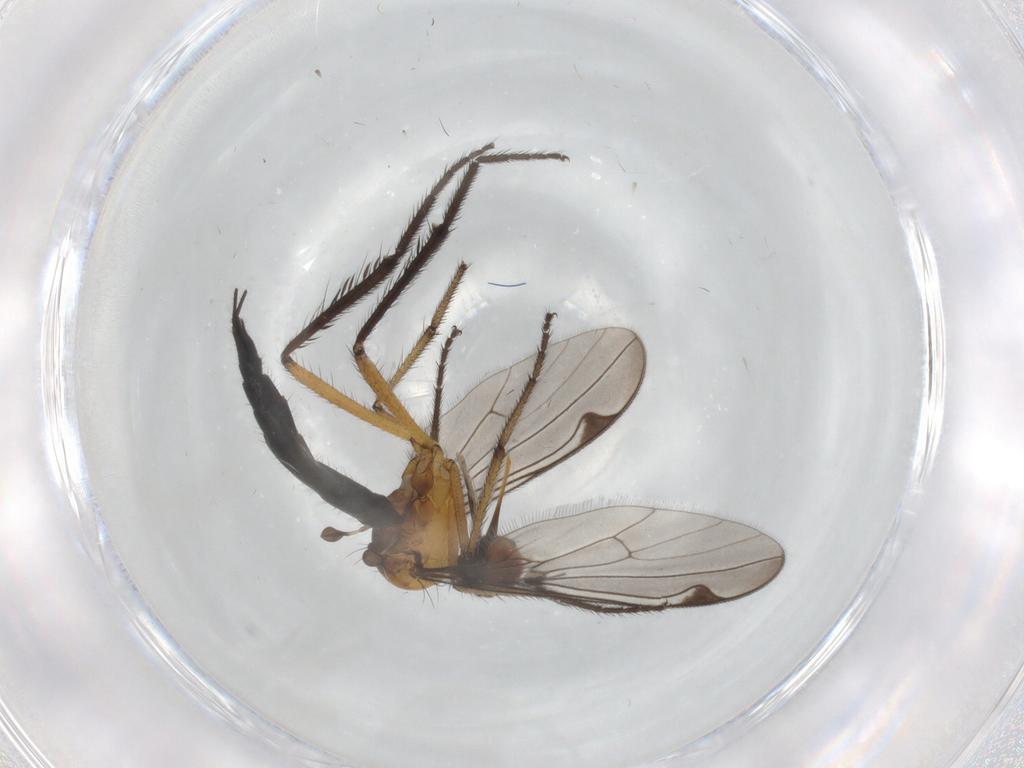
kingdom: Animalia
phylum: Arthropoda
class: Insecta
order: Diptera
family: Empididae
